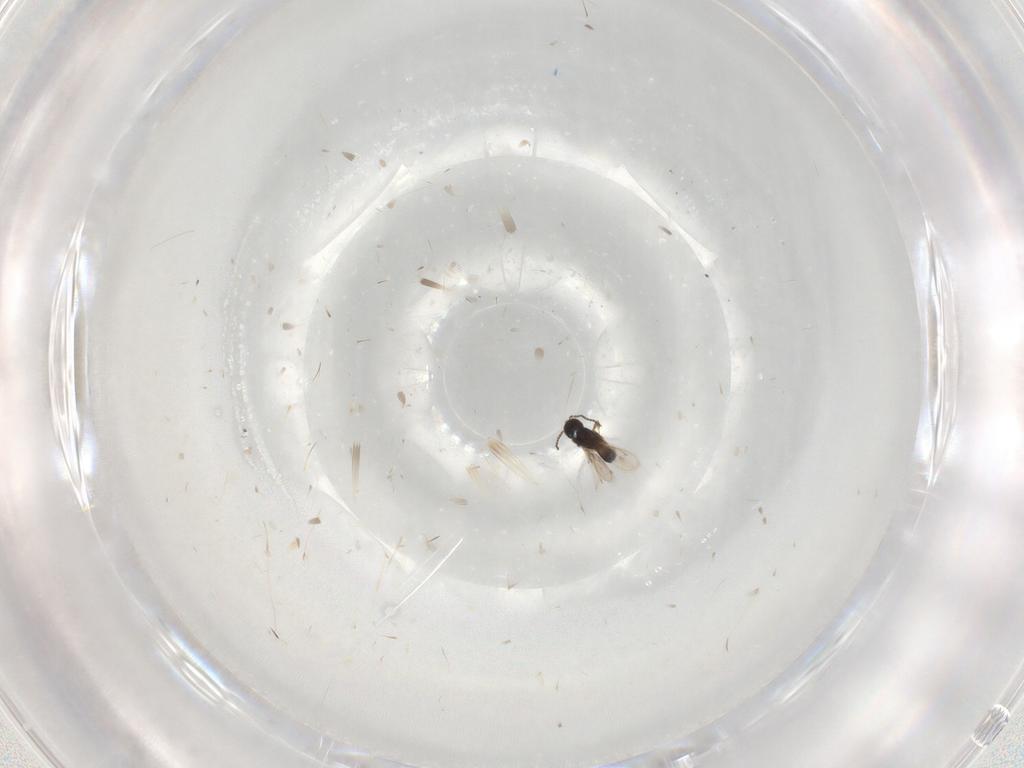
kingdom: Animalia
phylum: Arthropoda
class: Insecta
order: Hymenoptera
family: Scelionidae
